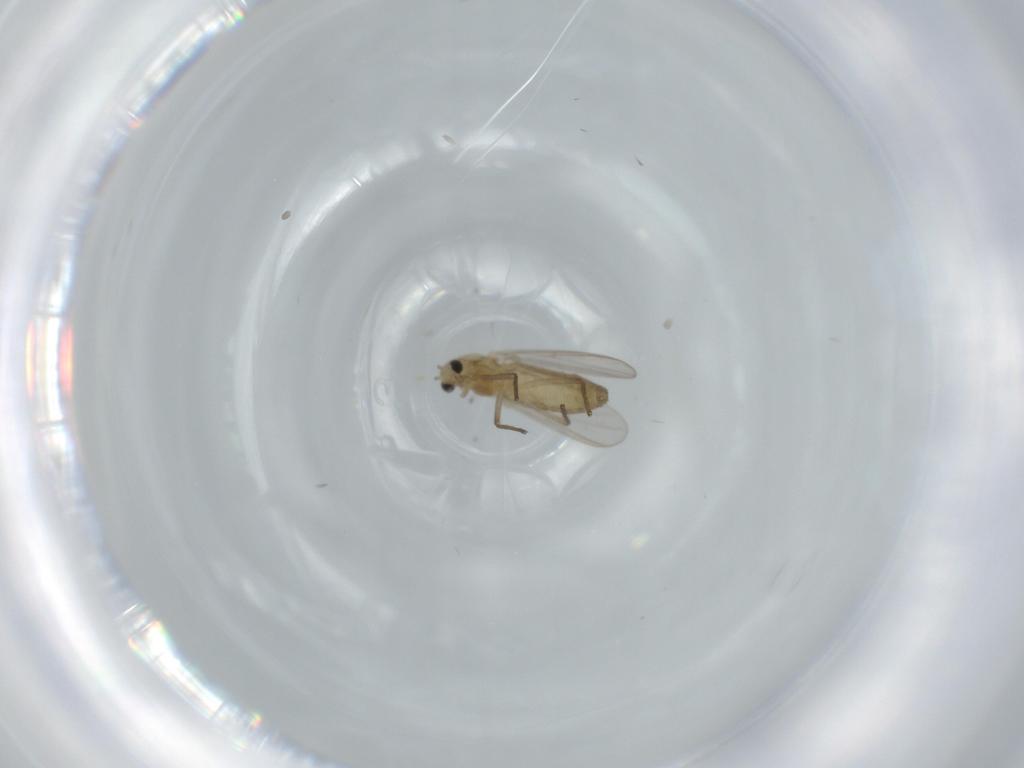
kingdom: Animalia
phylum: Arthropoda
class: Insecta
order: Diptera
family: Chironomidae
